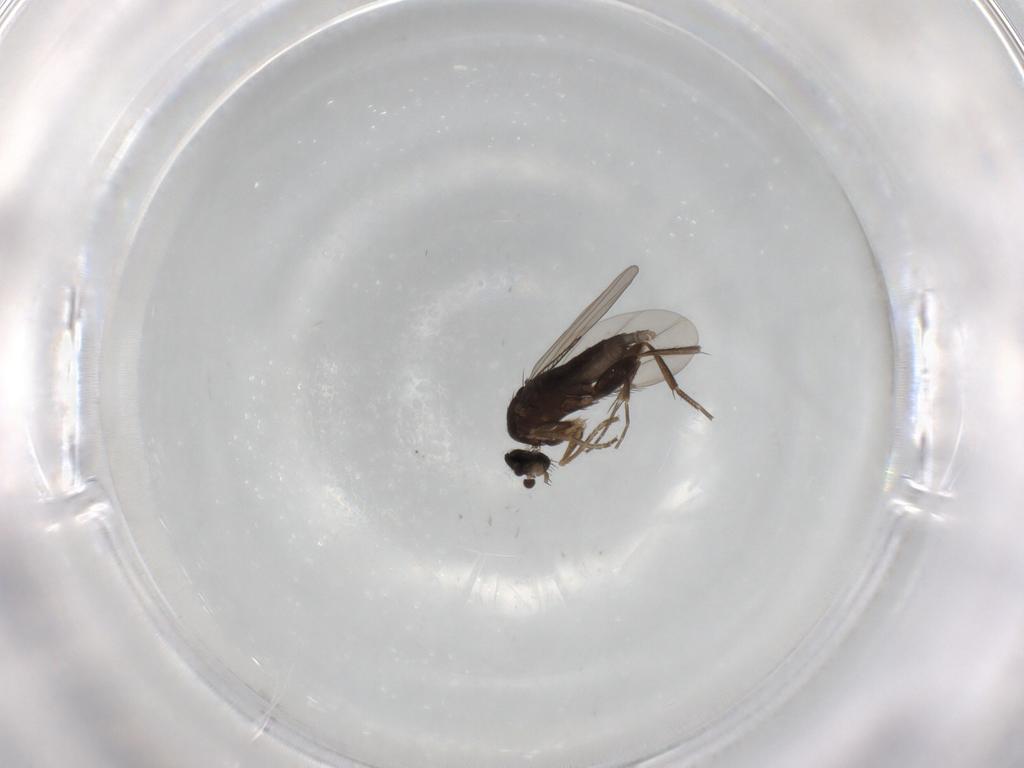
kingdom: Animalia
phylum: Arthropoda
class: Insecta
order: Diptera
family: Phoridae
